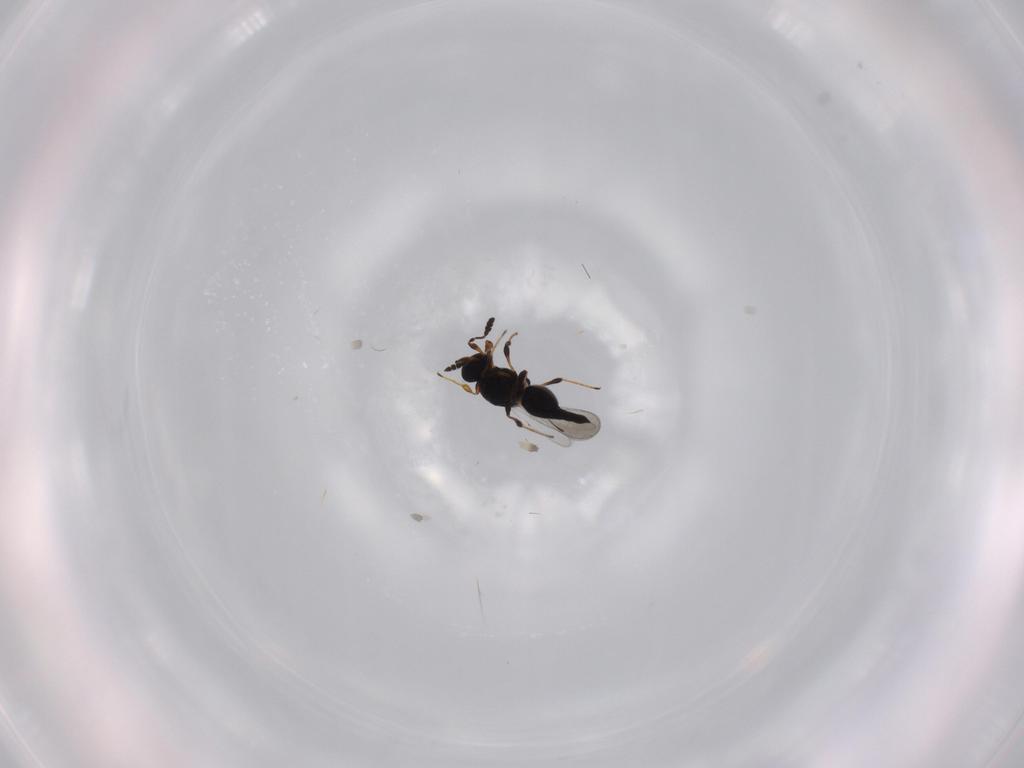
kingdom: Animalia
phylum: Arthropoda
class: Insecta
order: Hymenoptera
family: Platygastridae
